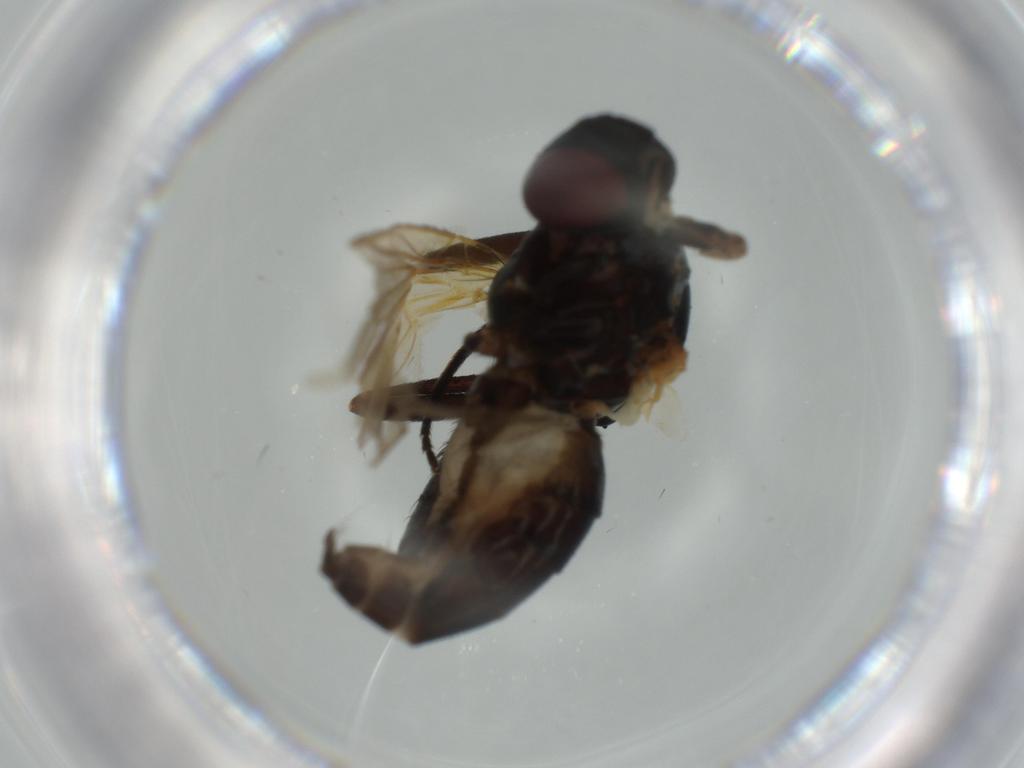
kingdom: Animalia
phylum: Arthropoda
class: Insecta
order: Diptera
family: Phoridae
